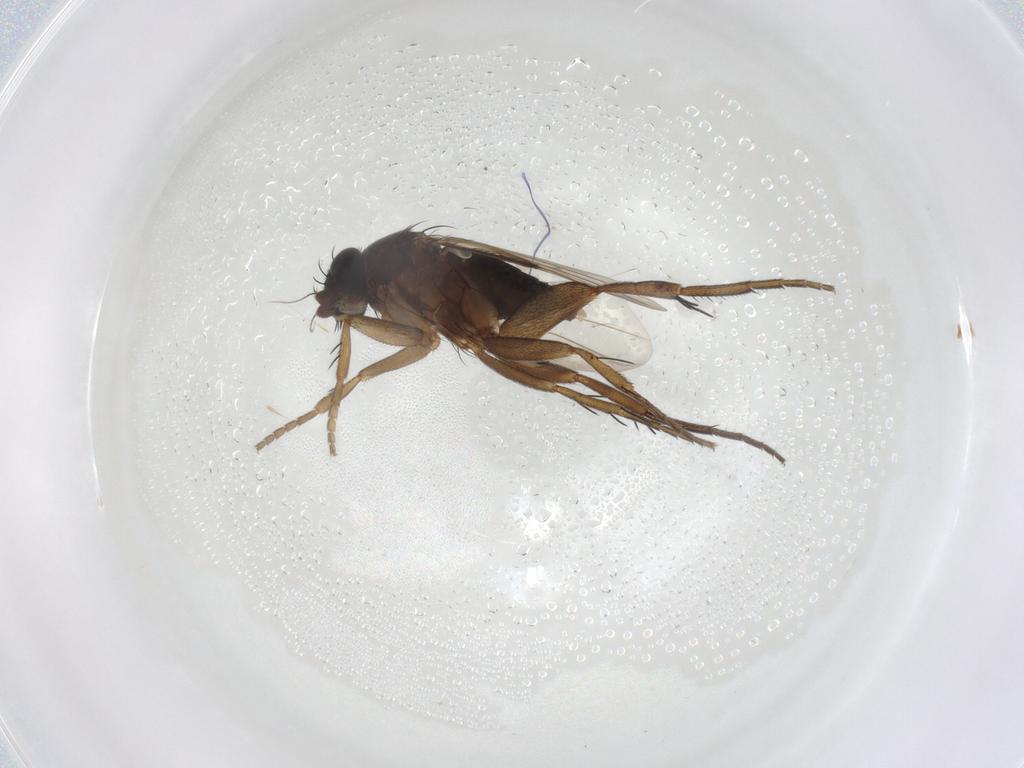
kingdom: Animalia
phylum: Arthropoda
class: Insecta
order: Diptera
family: Phoridae
